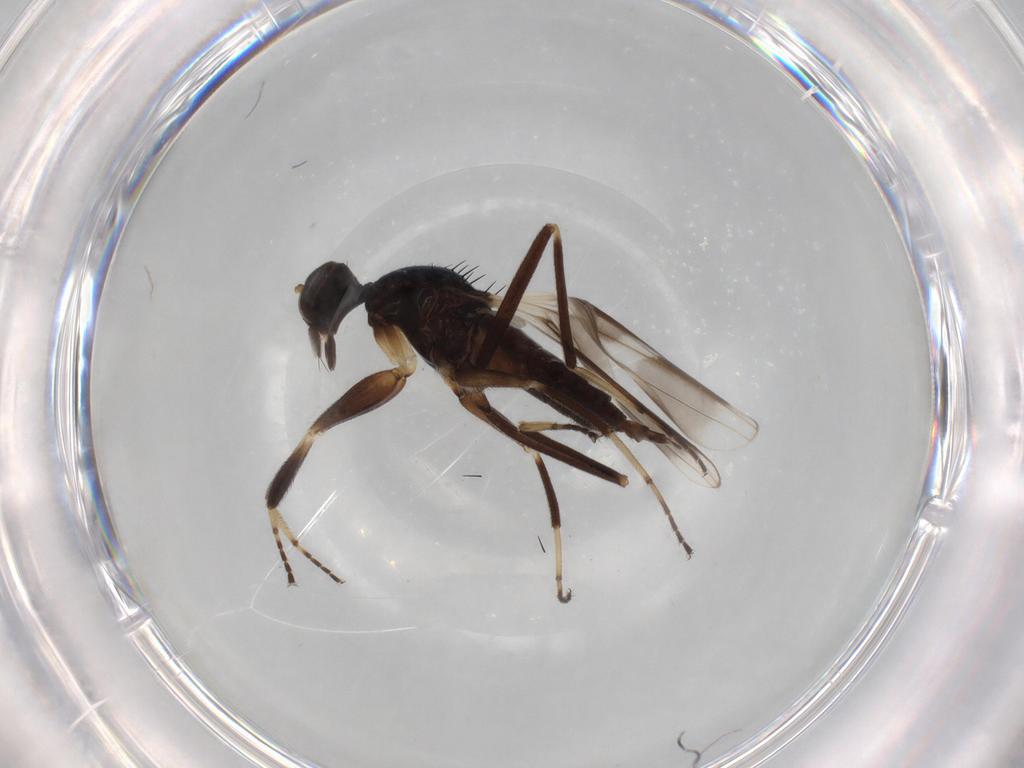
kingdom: Animalia
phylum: Arthropoda
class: Insecta
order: Diptera
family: Hybotidae
